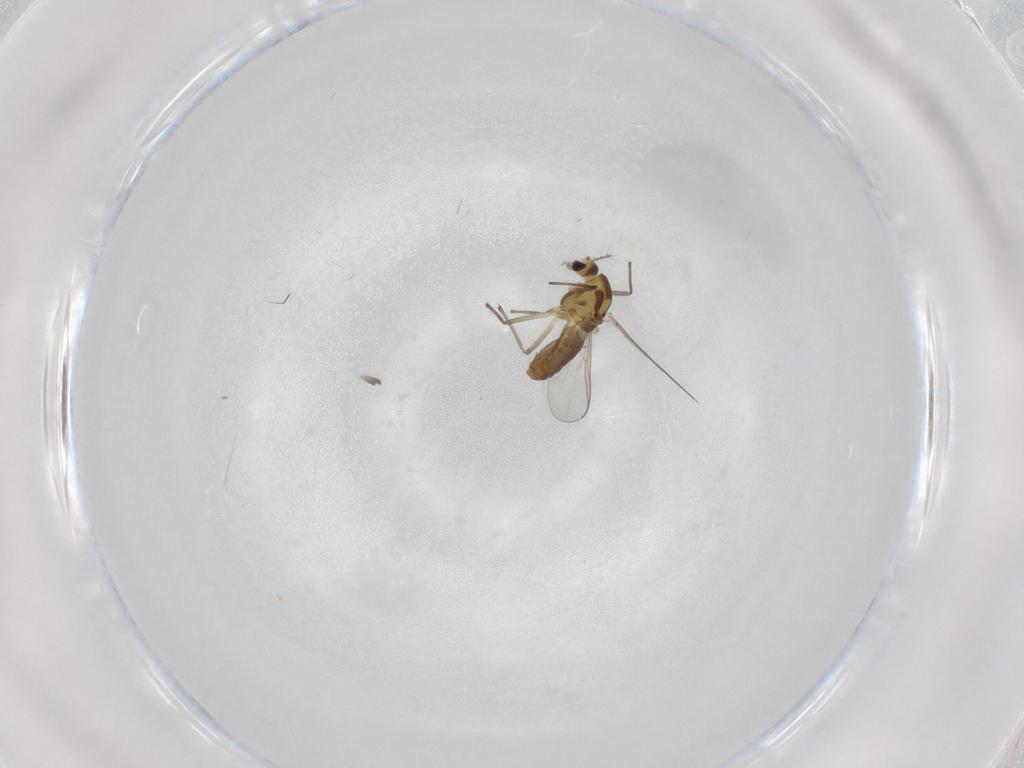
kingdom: Animalia
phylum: Arthropoda
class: Insecta
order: Diptera
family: Chironomidae
